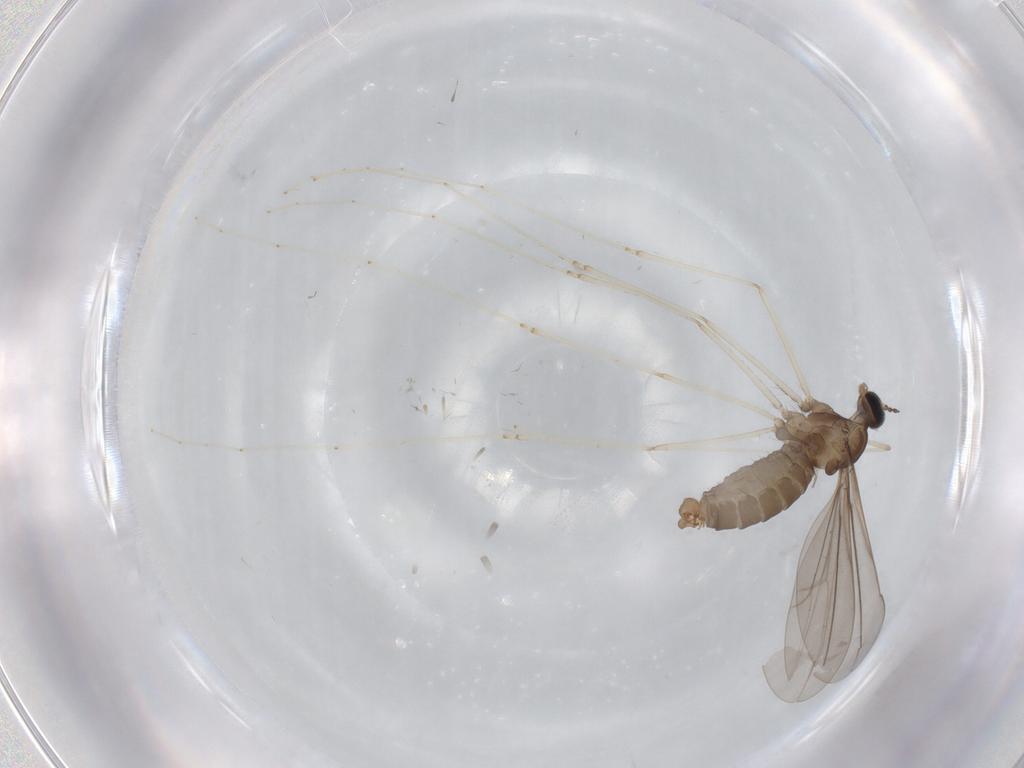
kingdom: Animalia
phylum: Arthropoda
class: Insecta
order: Diptera
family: Cecidomyiidae
